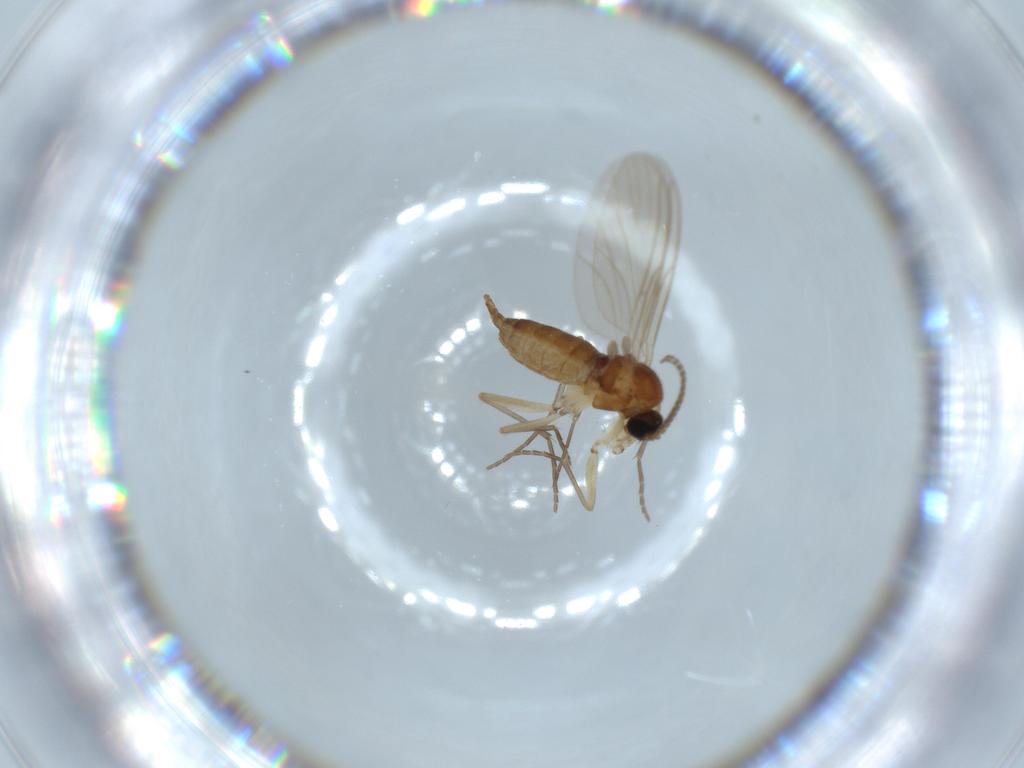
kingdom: Animalia
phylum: Arthropoda
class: Insecta
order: Diptera
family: Sciaridae
